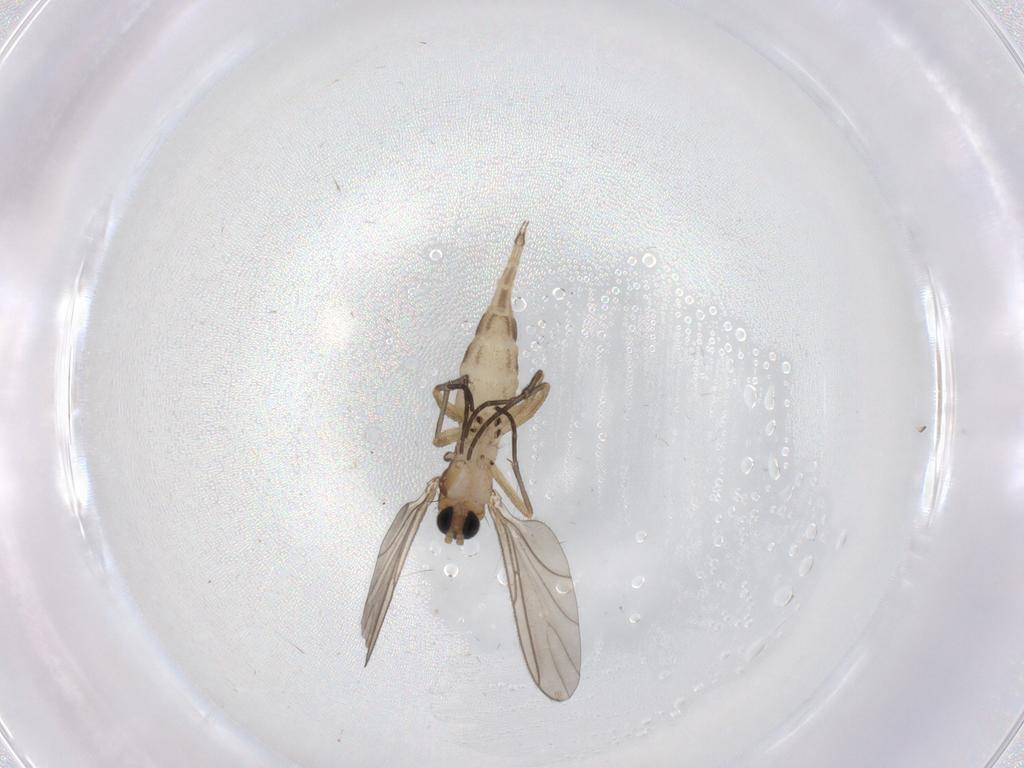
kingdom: Animalia
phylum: Arthropoda
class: Insecta
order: Diptera
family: Sciaridae
